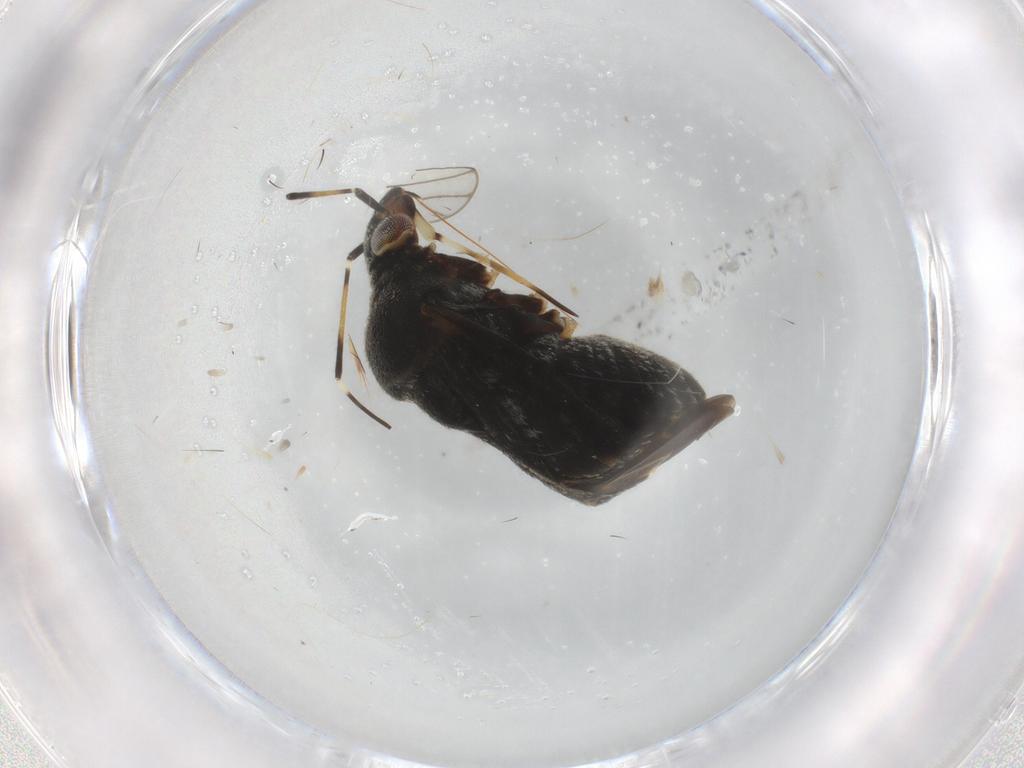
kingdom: Animalia
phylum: Arthropoda
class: Insecta
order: Hemiptera
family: Miridae
